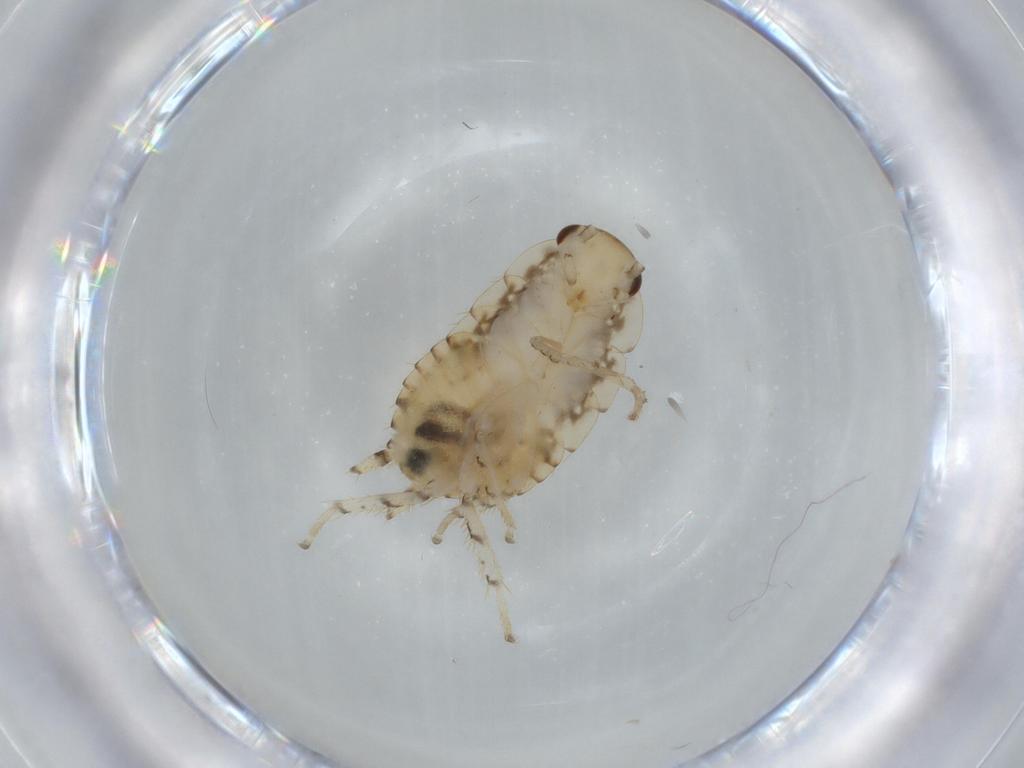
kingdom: Animalia
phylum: Arthropoda
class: Insecta
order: Blattodea
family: Ectobiidae
